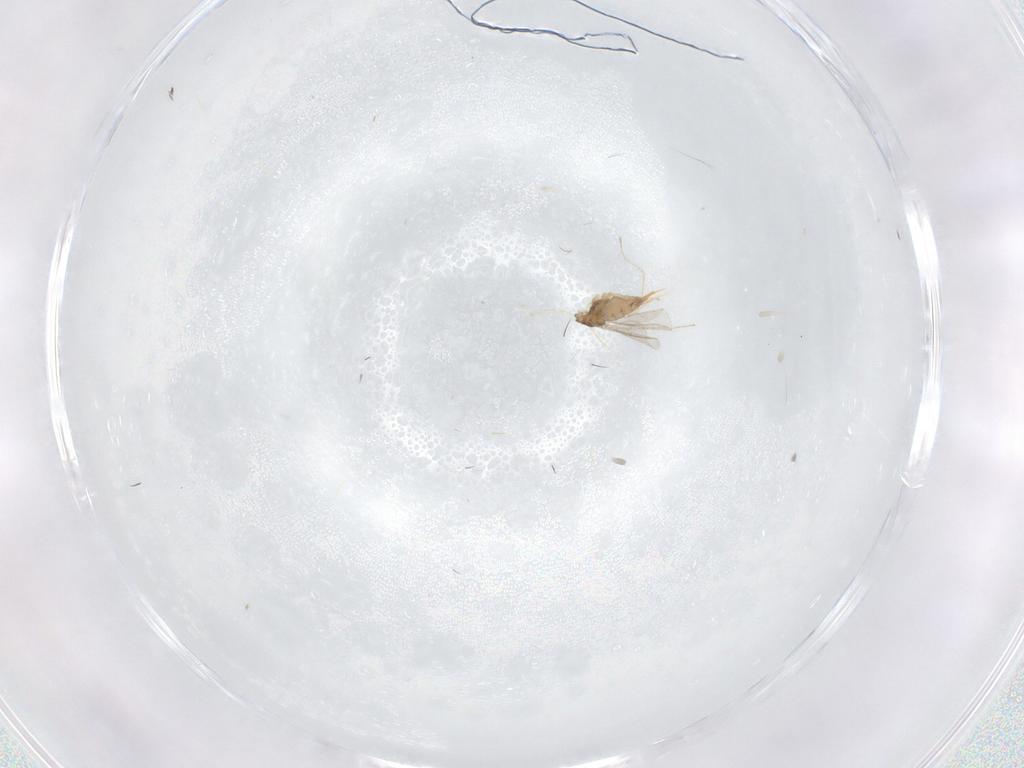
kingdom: Animalia
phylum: Arthropoda
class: Insecta
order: Diptera
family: Cecidomyiidae
